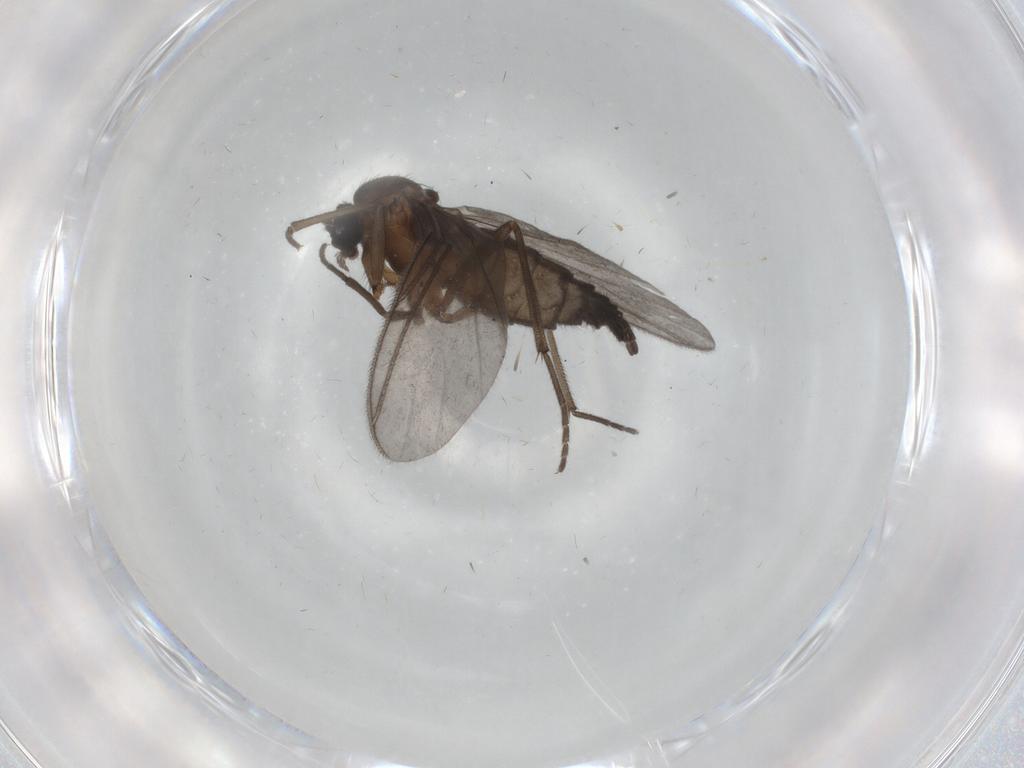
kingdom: Animalia
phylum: Arthropoda
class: Insecta
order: Diptera
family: Sciaridae
